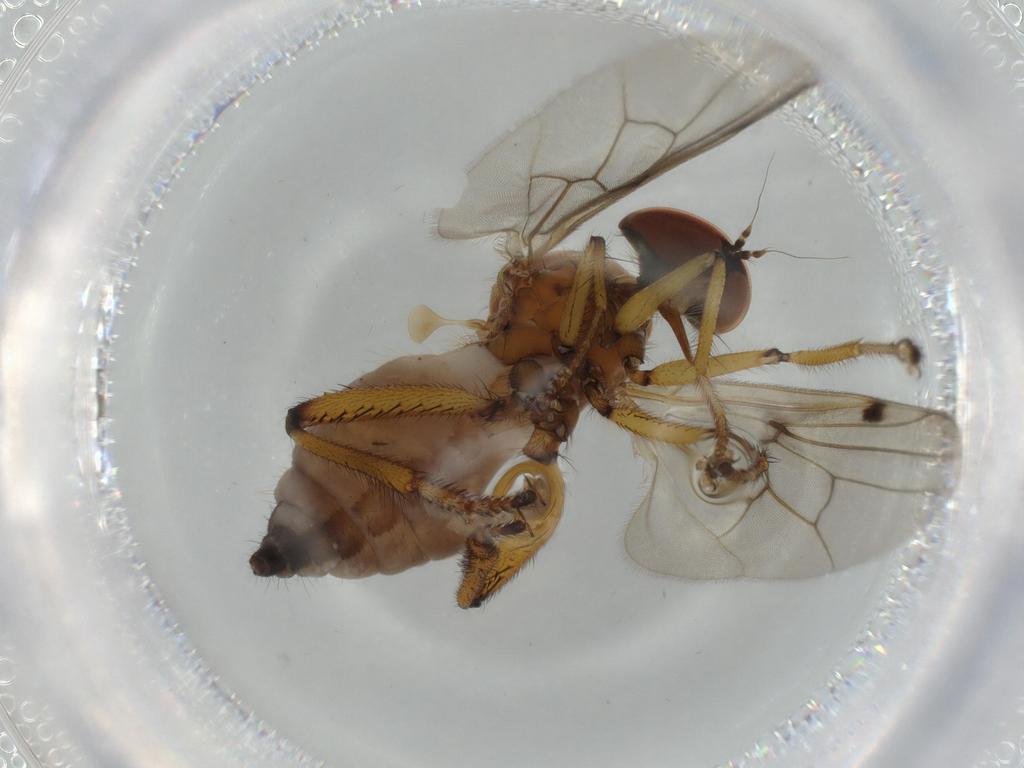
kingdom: Animalia
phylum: Arthropoda
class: Insecta
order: Diptera
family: Hybotidae
